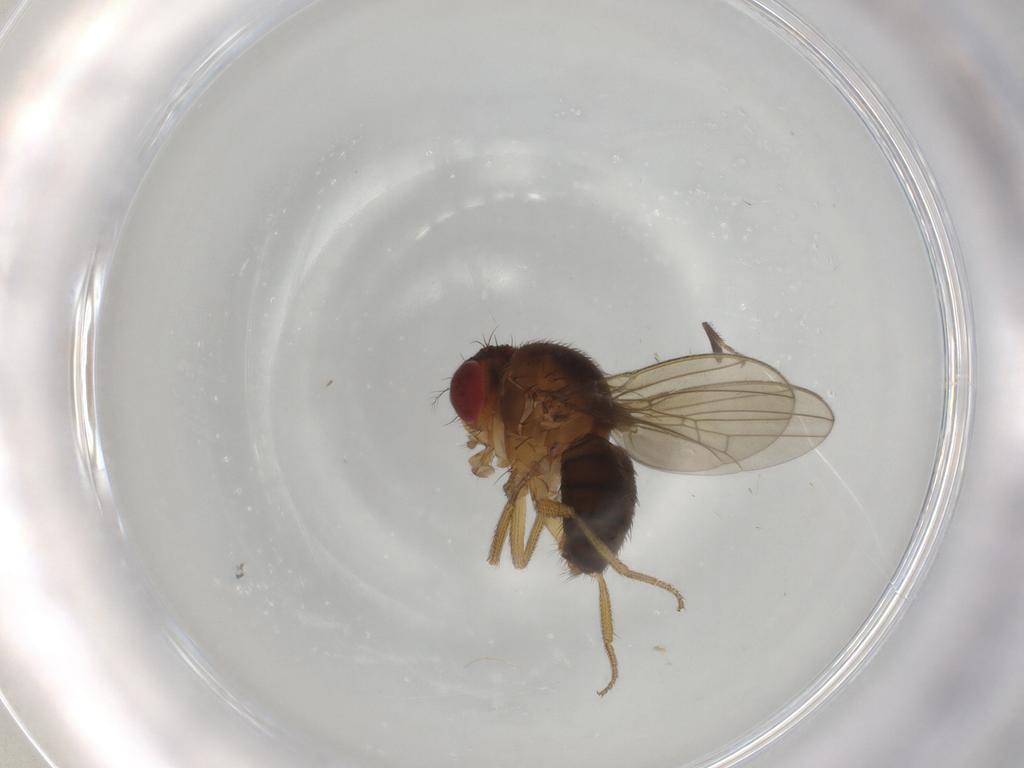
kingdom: Animalia
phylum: Arthropoda
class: Insecta
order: Diptera
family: Drosophilidae
